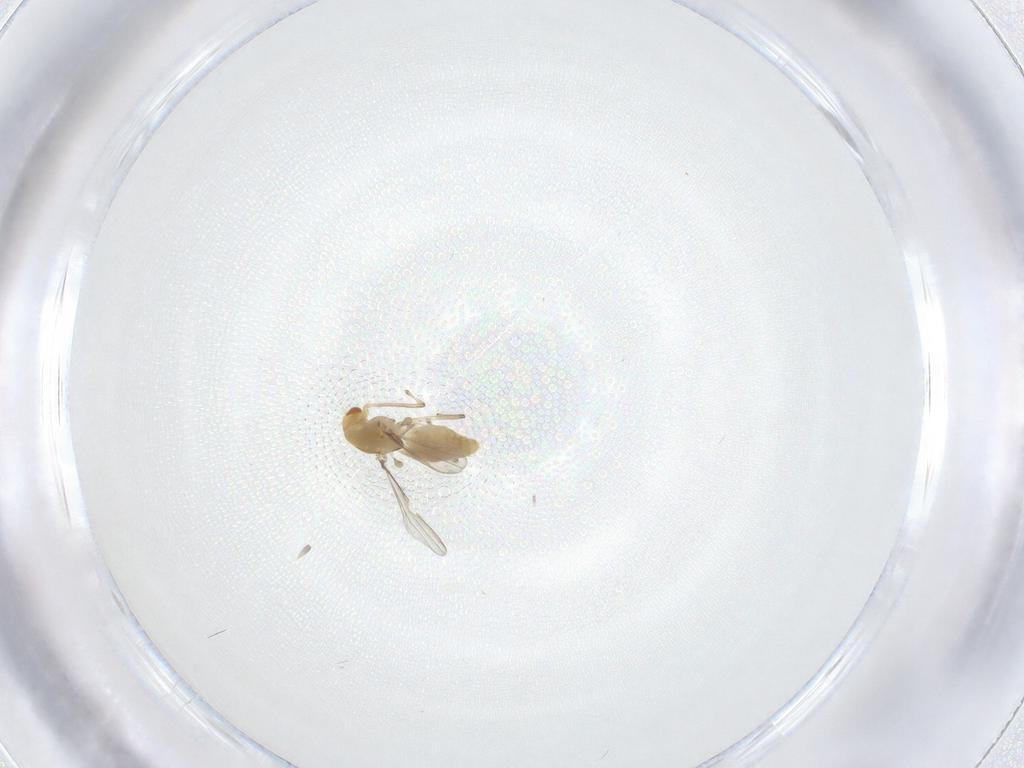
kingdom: Animalia
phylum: Arthropoda
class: Insecta
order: Diptera
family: Chironomidae
